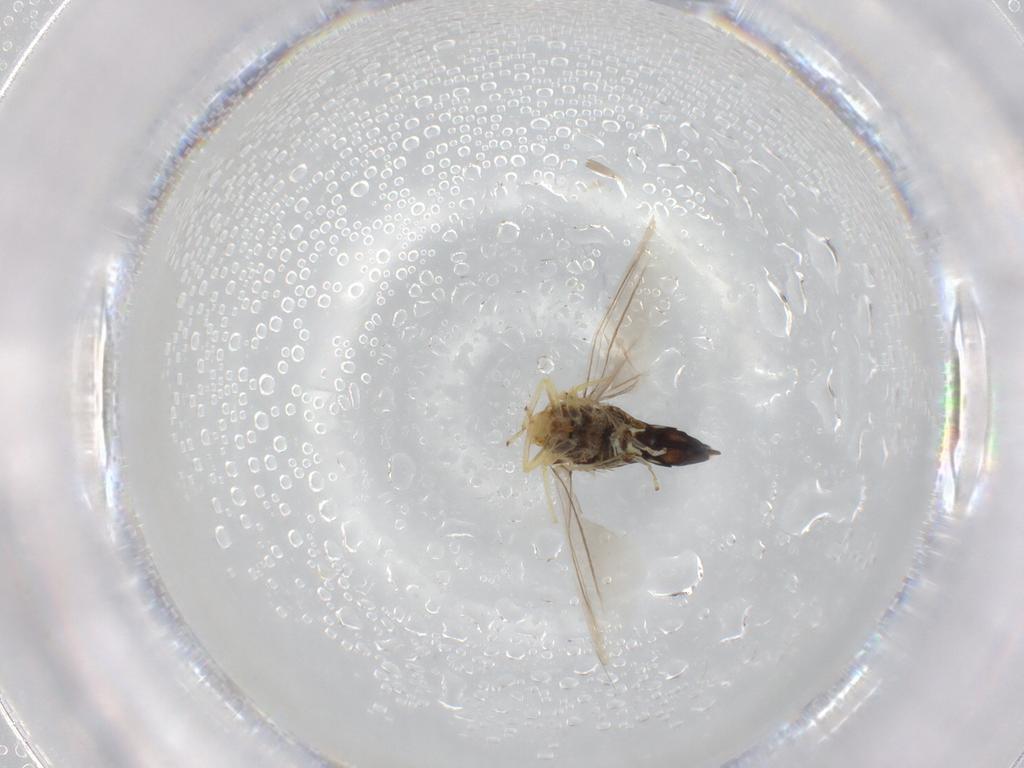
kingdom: Animalia
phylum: Arthropoda
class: Insecta
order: Hemiptera
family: Cicadellidae
